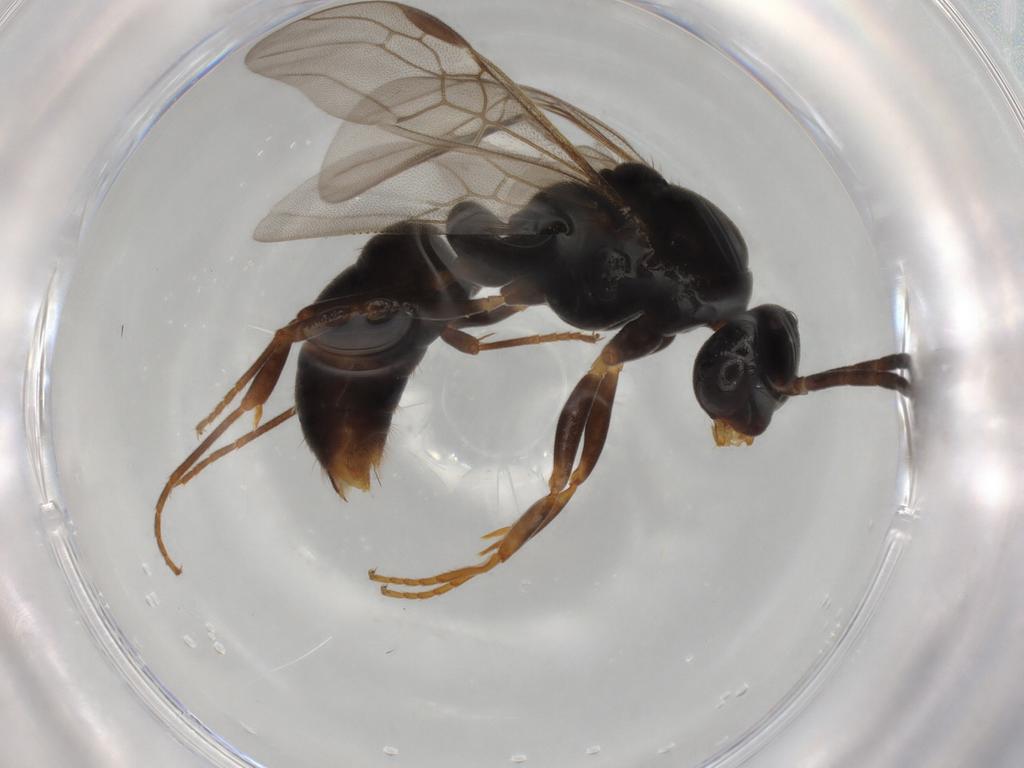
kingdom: Animalia
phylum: Arthropoda
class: Insecta
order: Hymenoptera
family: Formicidae
